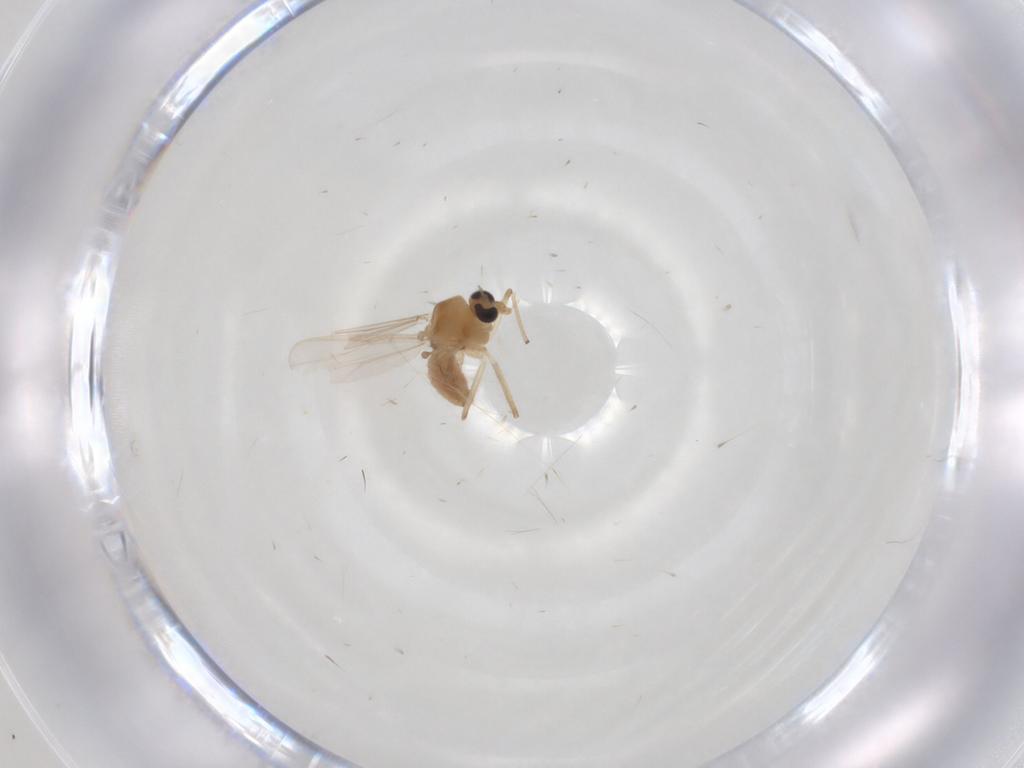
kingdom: Animalia
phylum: Arthropoda
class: Insecta
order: Diptera
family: Chironomidae
